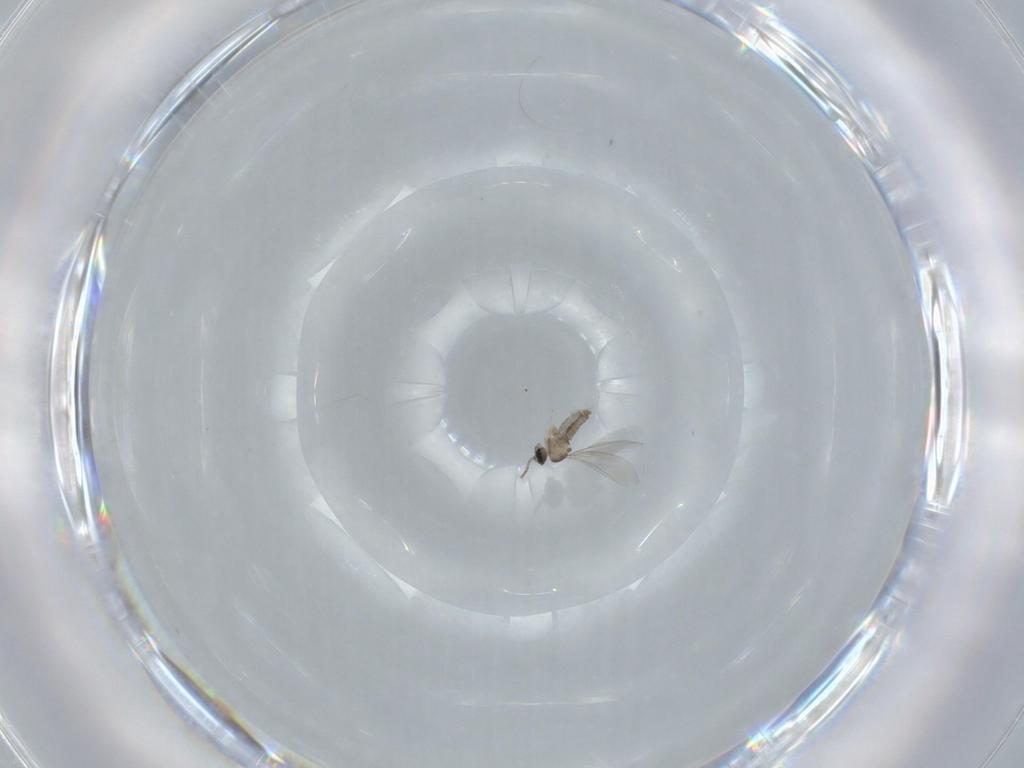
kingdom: Animalia
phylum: Arthropoda
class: Insecta
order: Diptera
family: Cecidomyiidae
